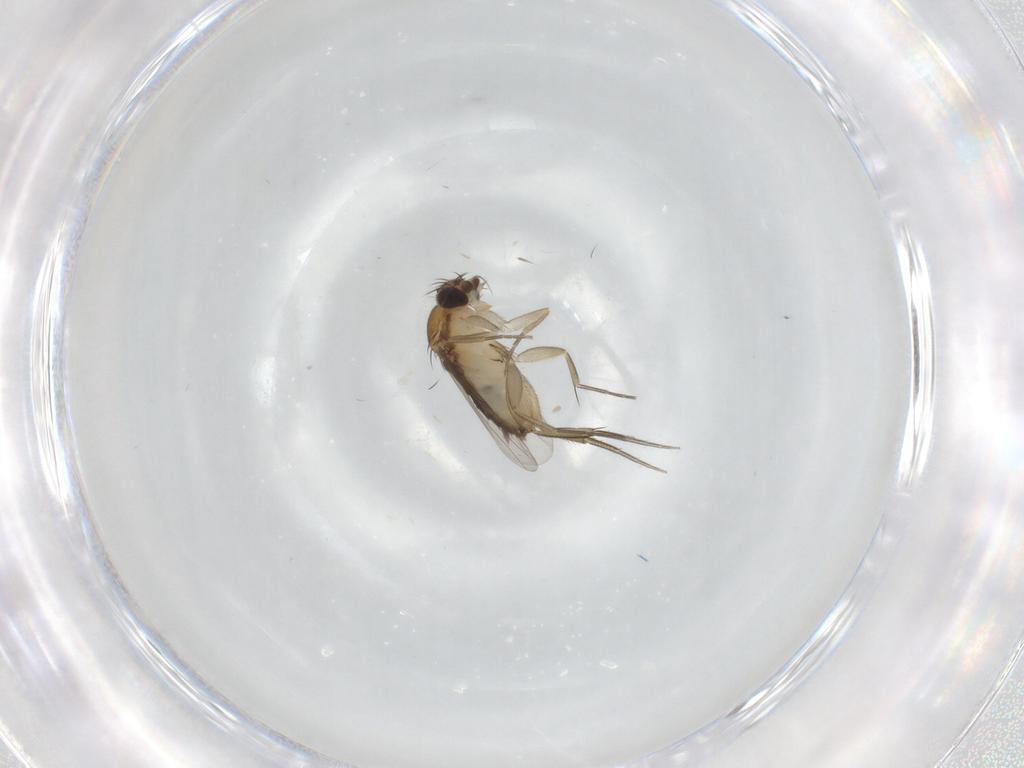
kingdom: Animalia
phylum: Arthropoda
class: Insecta
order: Diptera
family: Phoridae
